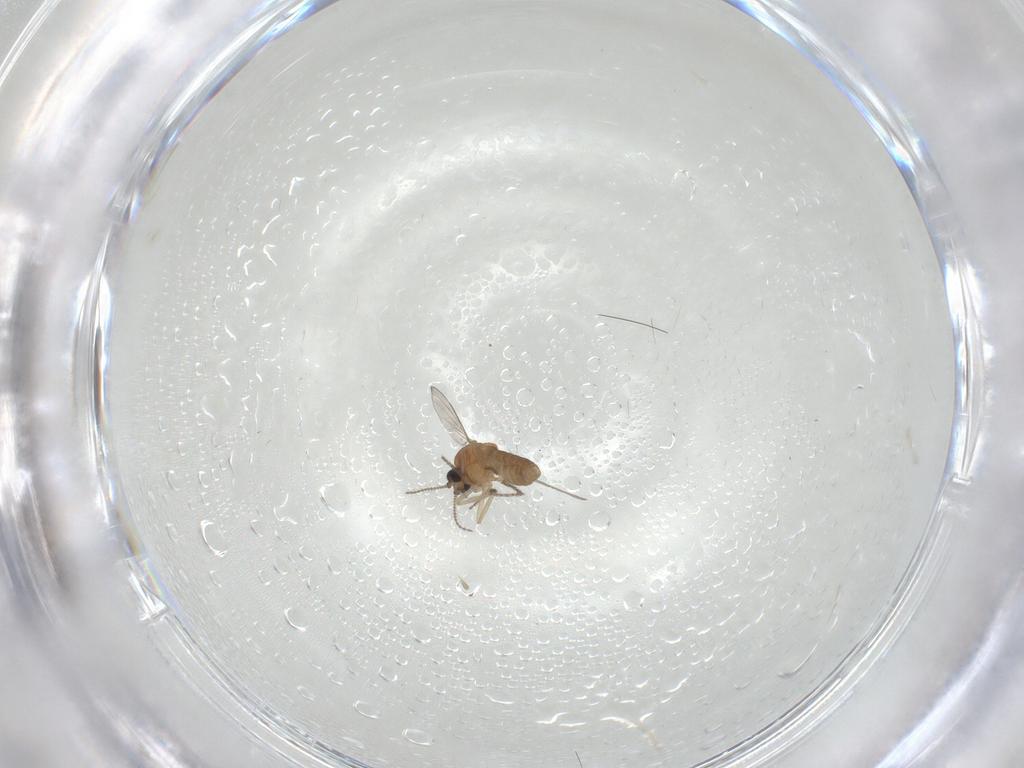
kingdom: Animalia
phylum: Arthropoda
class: Insecta
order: Diptera
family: Ceratopogonidae
